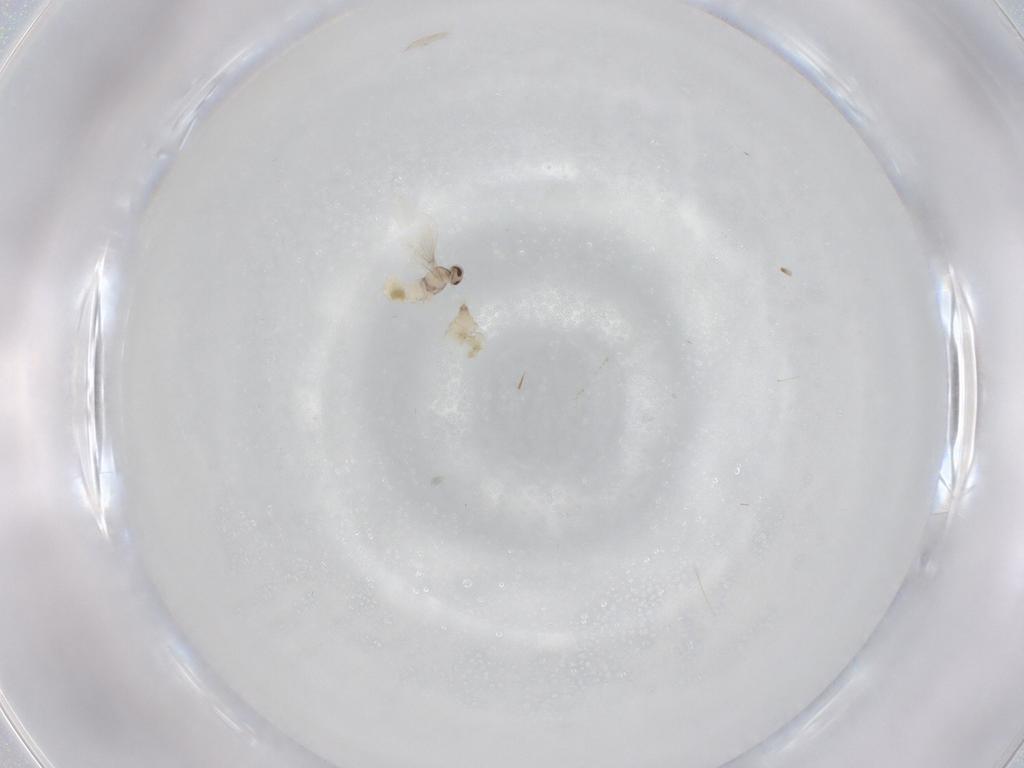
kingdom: Animalia
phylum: Arthropoda
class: Insecta
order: Diptera
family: Cecidomyiidae
